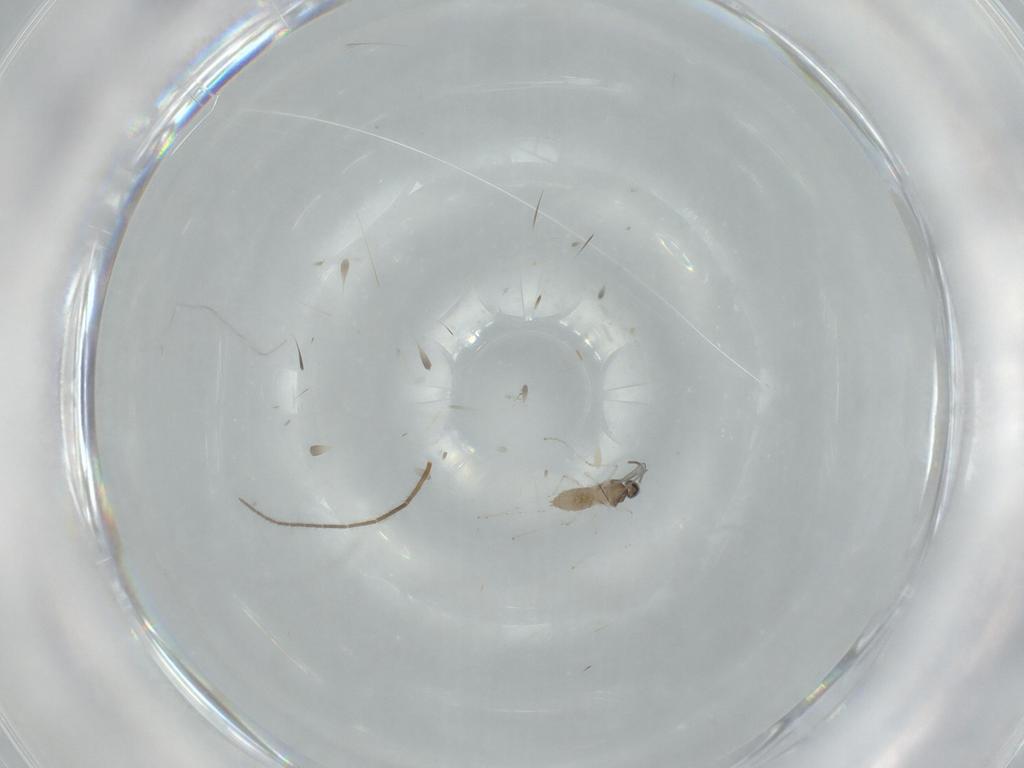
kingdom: Animalia
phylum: Arthropoda
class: Insecta
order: Diptera
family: Cecidomyiidae
